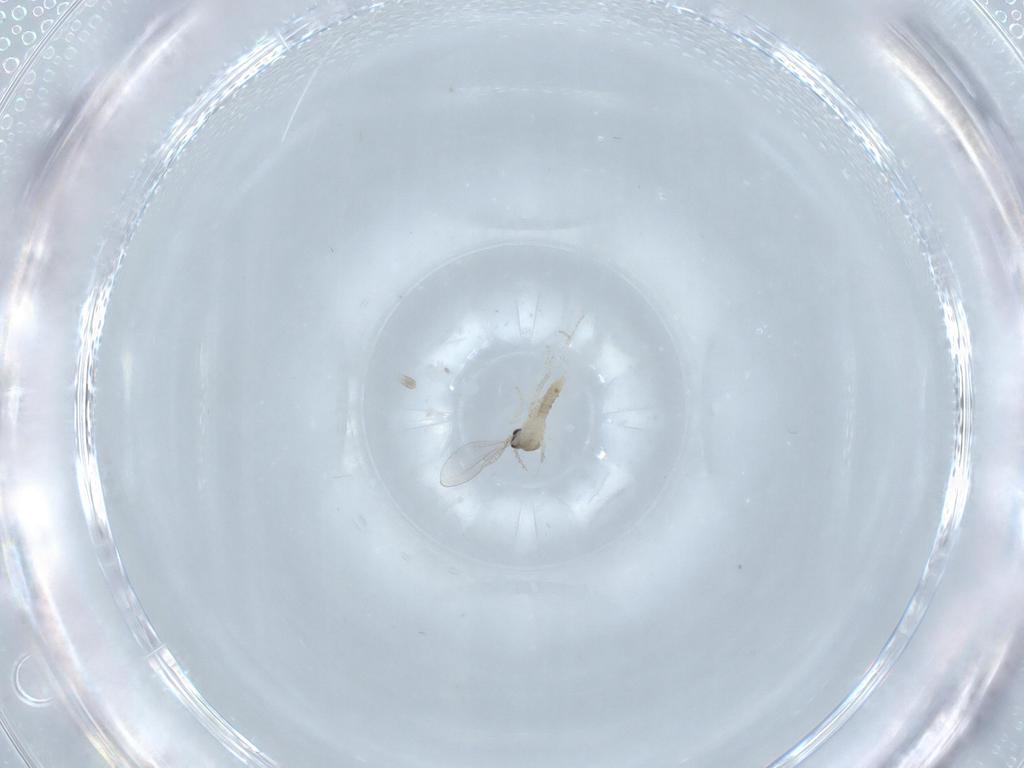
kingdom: Animalia
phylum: Arthropoda
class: Insecta
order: Diptera
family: Cecidomyiidae
